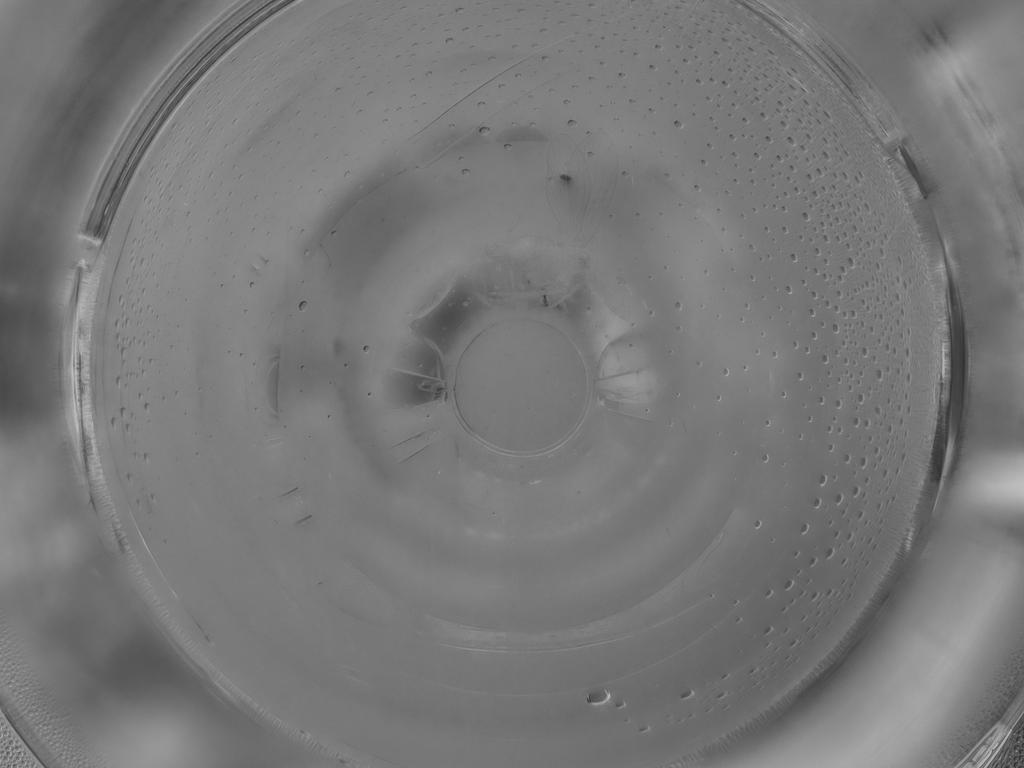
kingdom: Animalia
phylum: Arthropoda
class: Insecta
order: Diptera
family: Psychodidae
